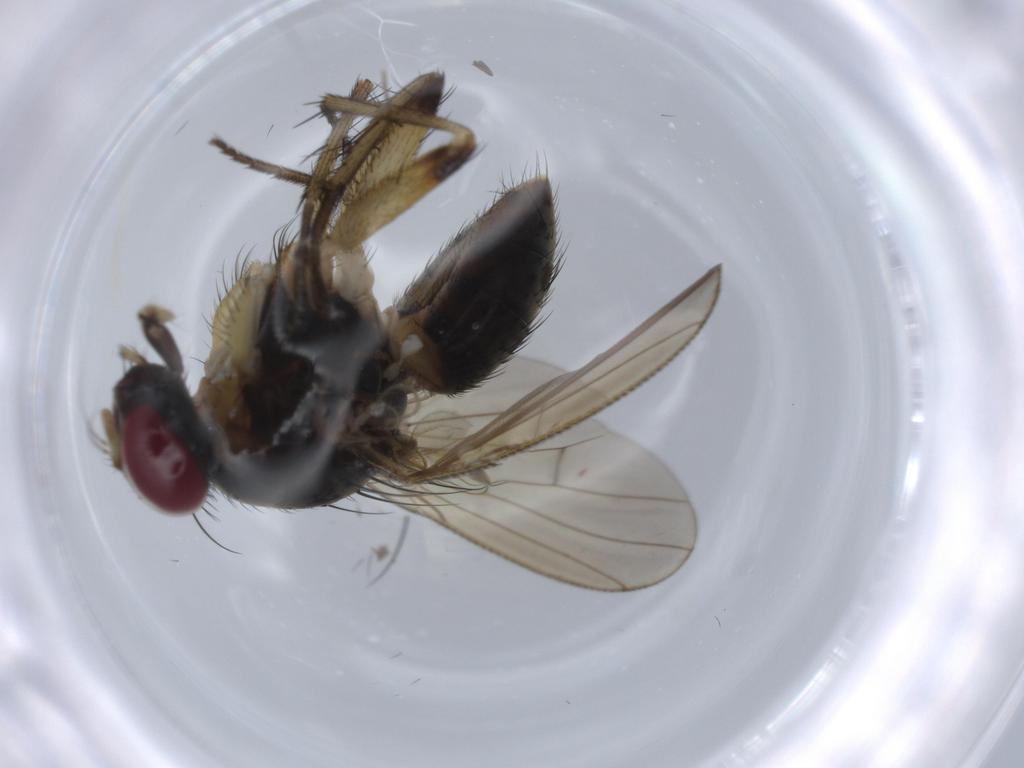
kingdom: Animalia
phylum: Arthropoda
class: Insecta
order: Diptera
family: Muscidae
